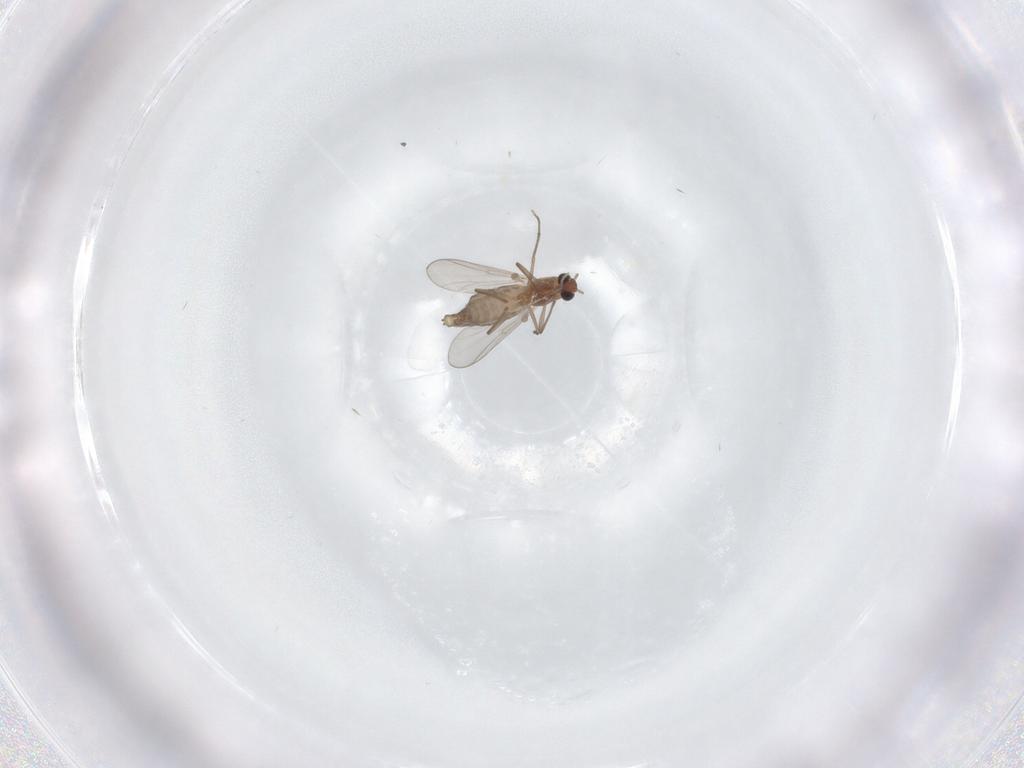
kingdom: Animalia
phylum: Arthropoda
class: Insecta
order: Diptera
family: Chironomidae
